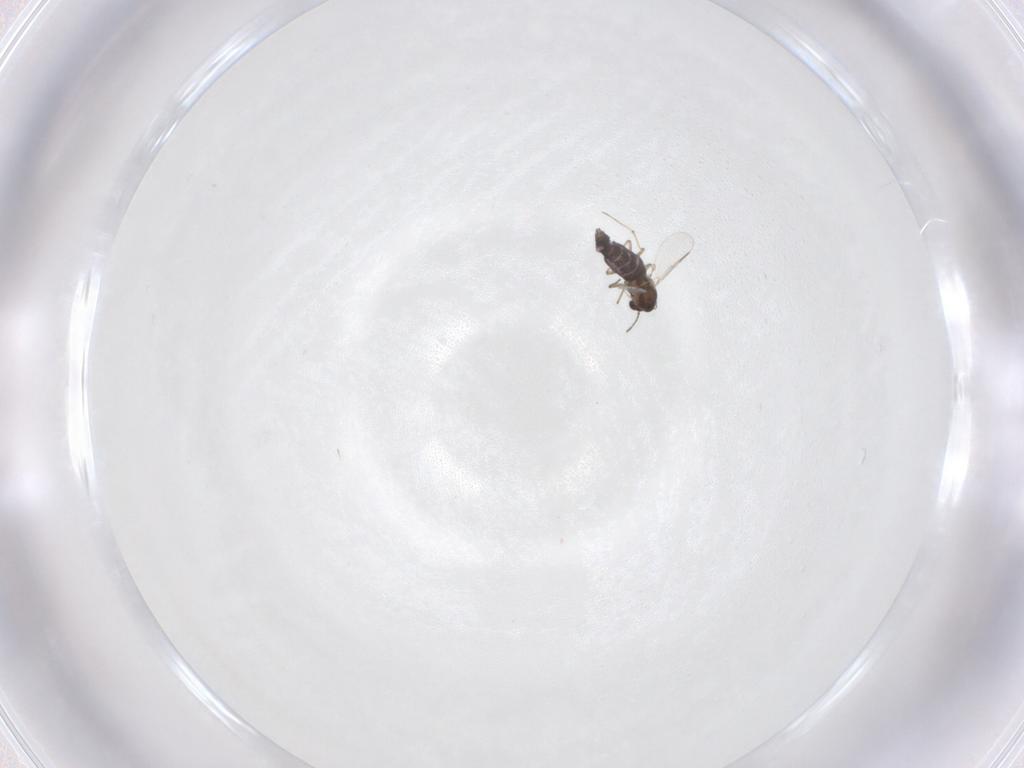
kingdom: Animalia
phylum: Arthropoda
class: Insecta
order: Diptera
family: Chironomidae
